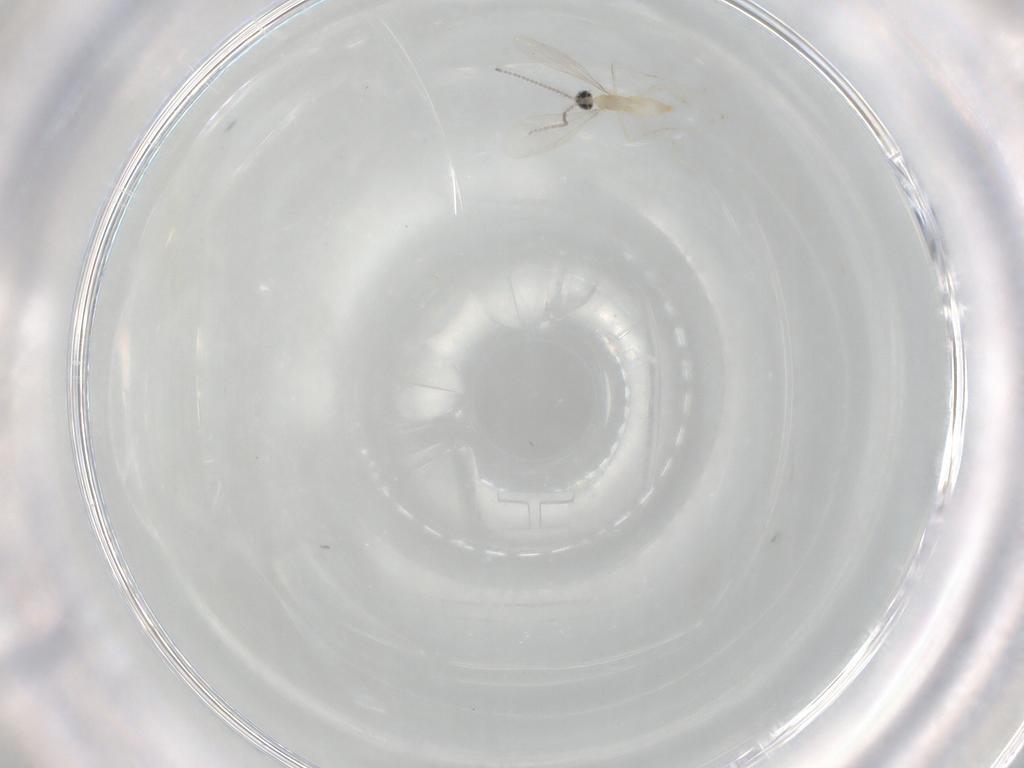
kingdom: Animalia
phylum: Arthropoda
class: Insecta
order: Diptera
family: Cecidomyiidae
